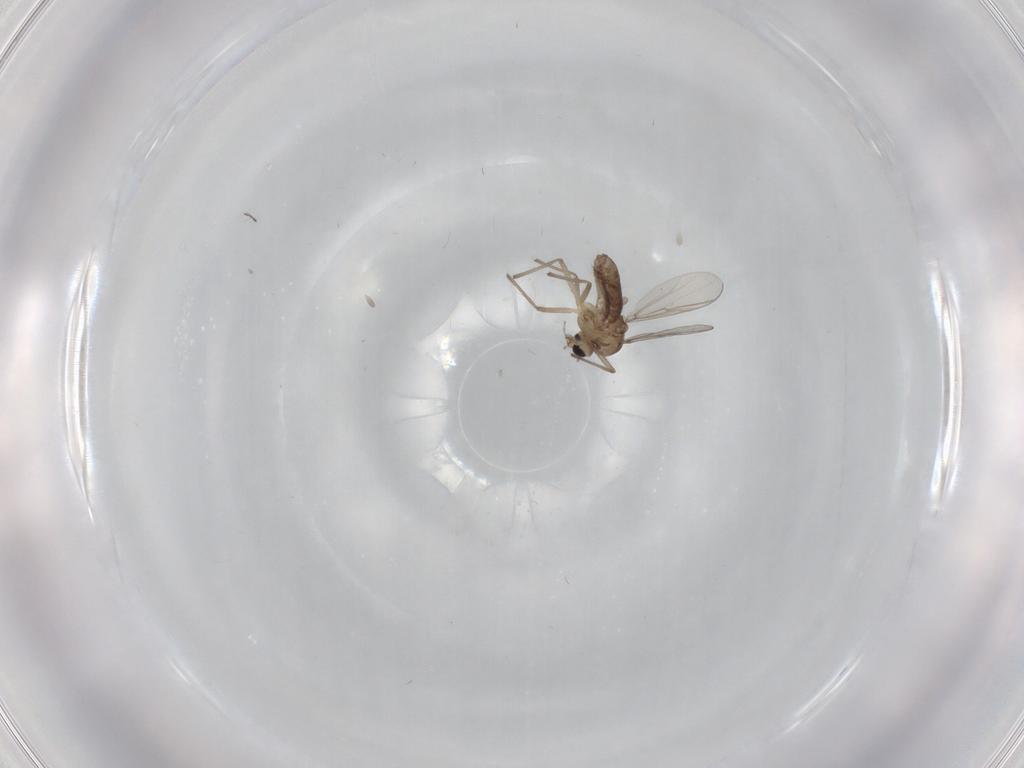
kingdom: Animalia
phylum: Arthropoda
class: Insecta
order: Diptera
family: Chironomidae
